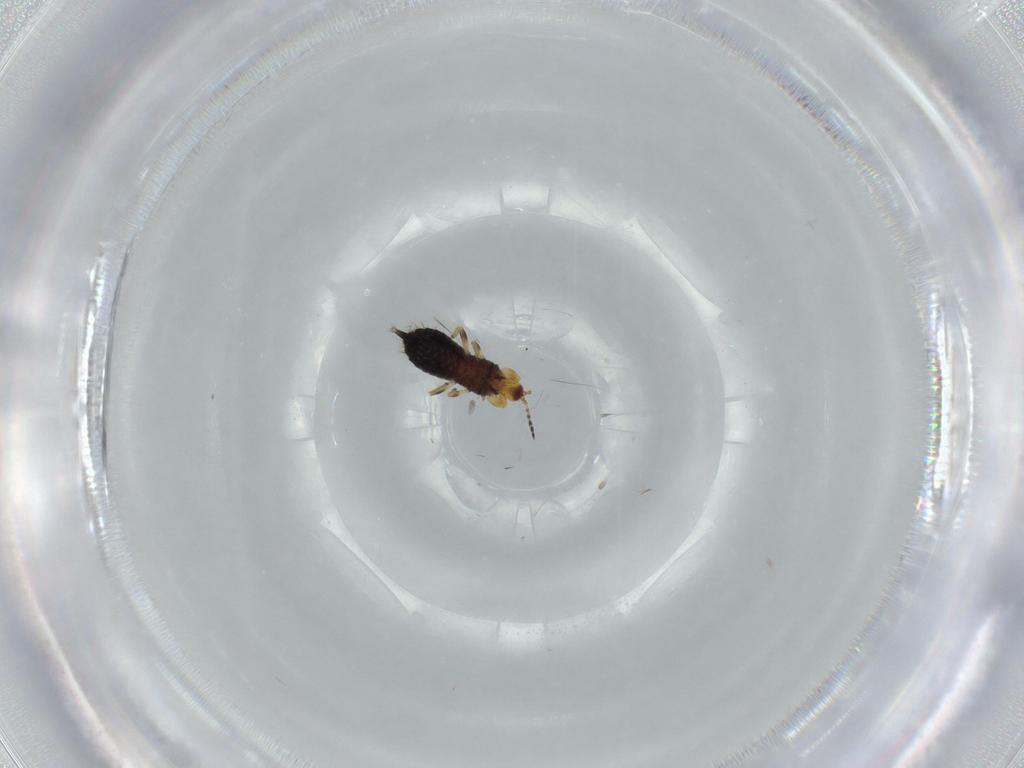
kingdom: Animalia
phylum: Arthropoda
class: Insecta
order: Thysanoptera
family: Phlaeothripidae
